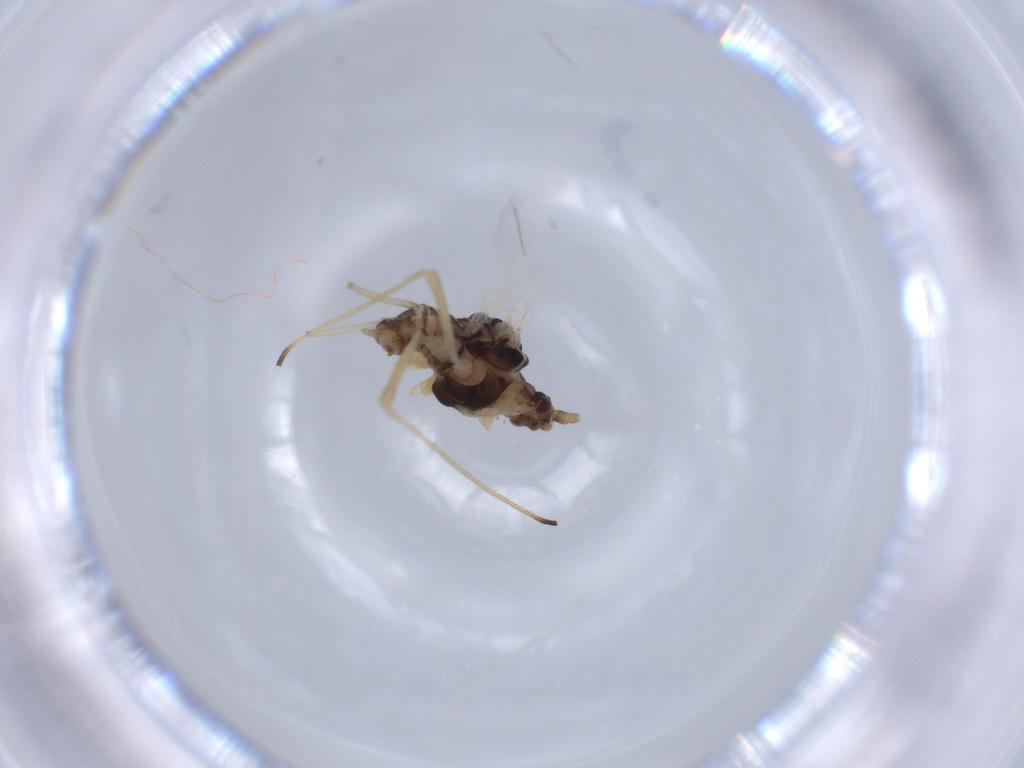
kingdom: Animalia
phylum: Arthropoda
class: Insecta
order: Hemiptera
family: Aphididae
